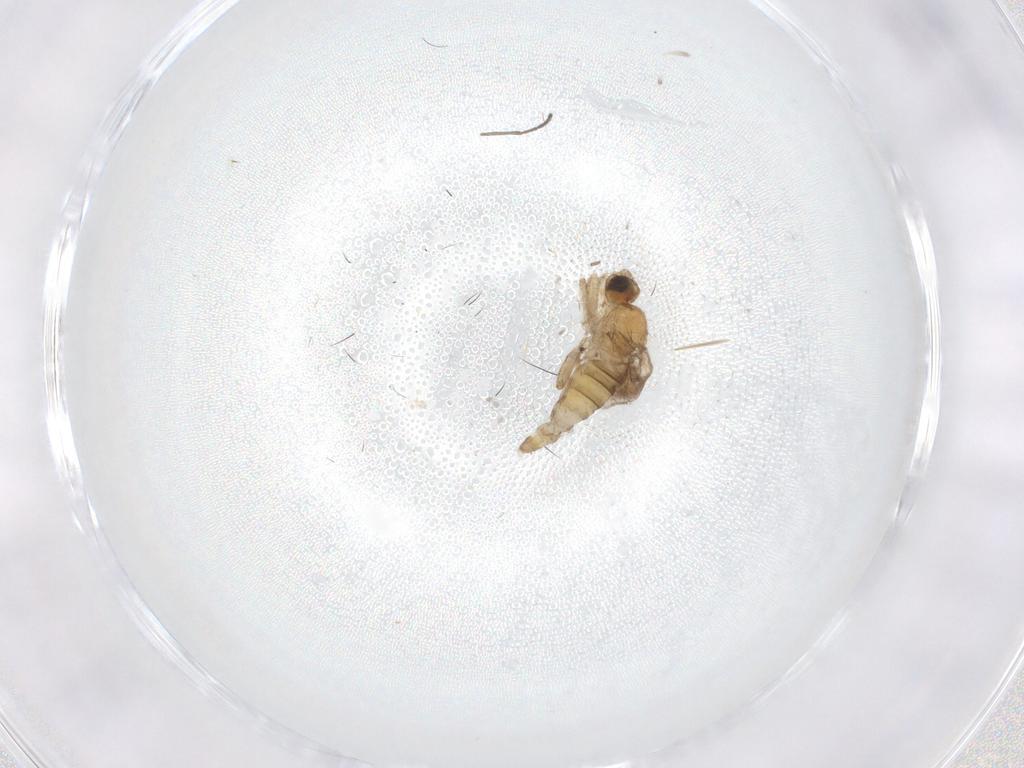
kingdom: Animalia
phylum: Arthropoda
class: Insecta
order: Diptera
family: Hybotidae
